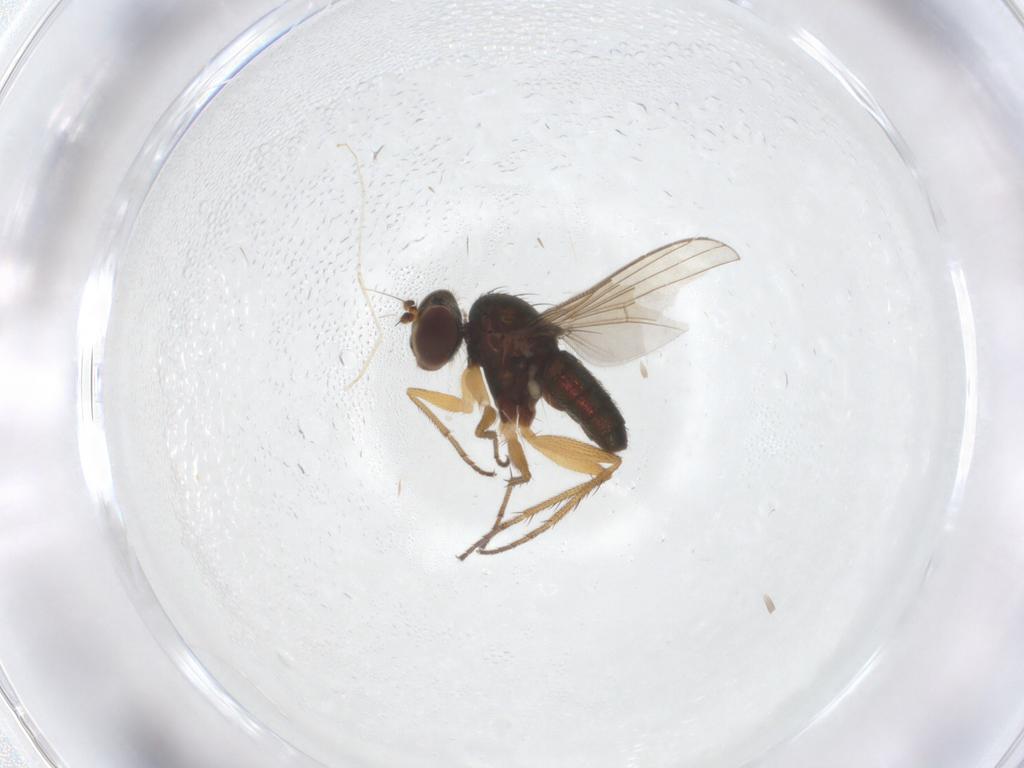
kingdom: Animalia
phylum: Arthropoda
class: Insecta
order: Diptera
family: Cecidomyiidae
